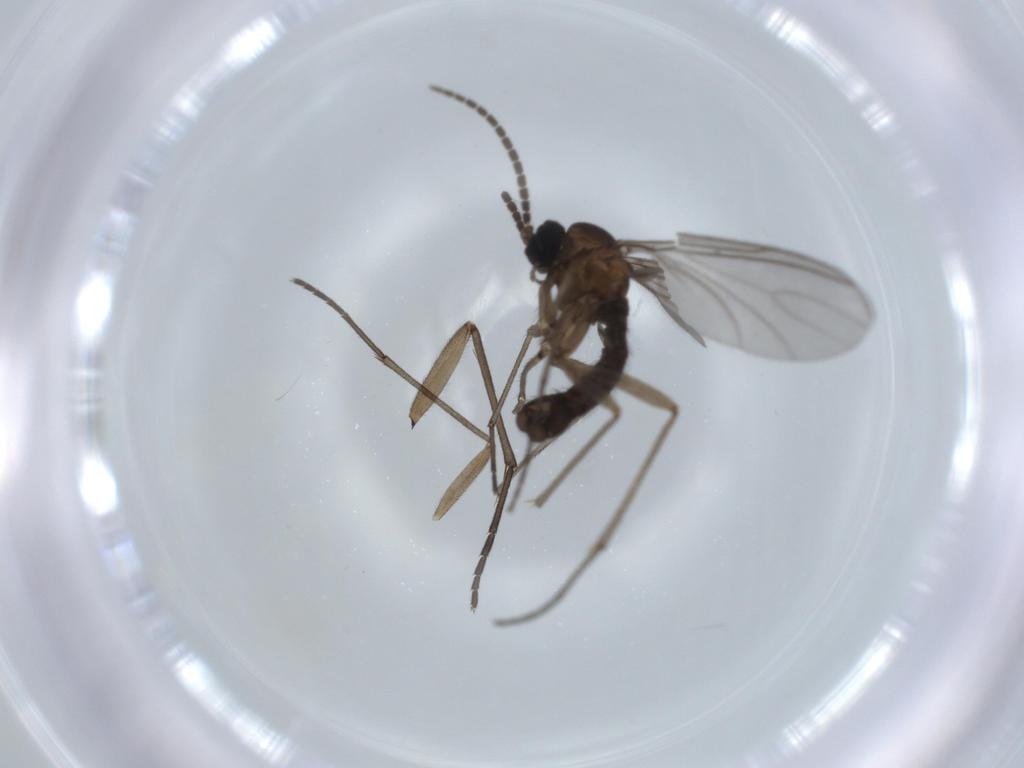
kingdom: Animalia
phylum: Arthropoda
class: Insecta
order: Diptera
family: Sciaridae
